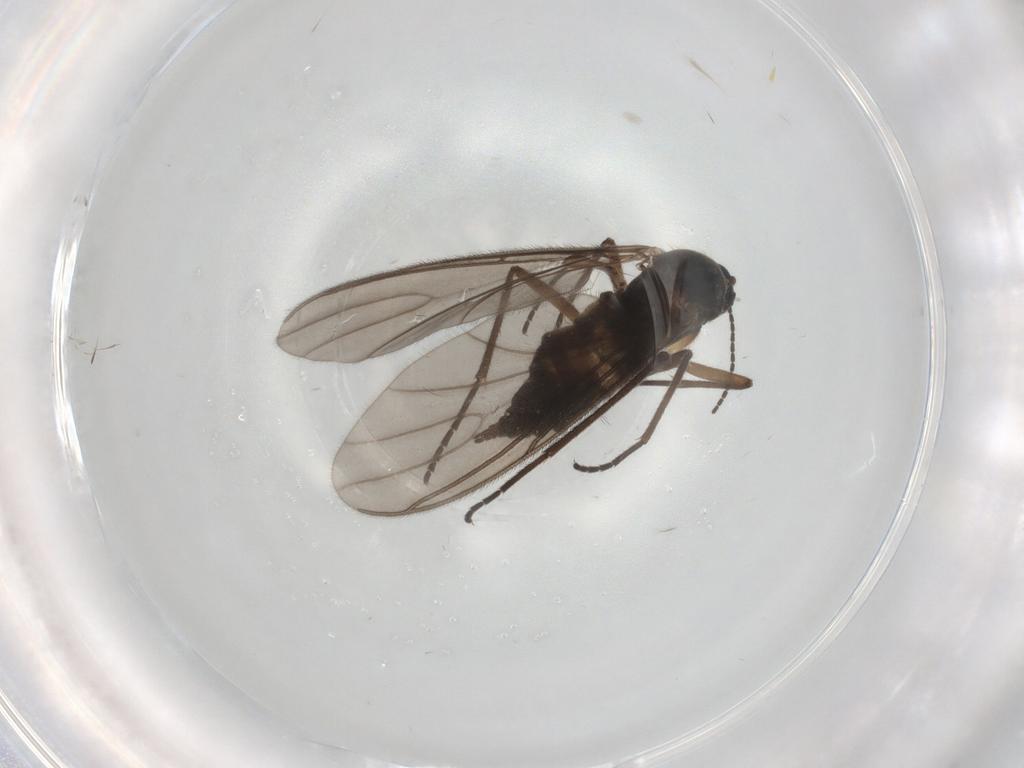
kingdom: Animalia
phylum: Arthropoda
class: Insecta
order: Diptera
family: Sciaridae
